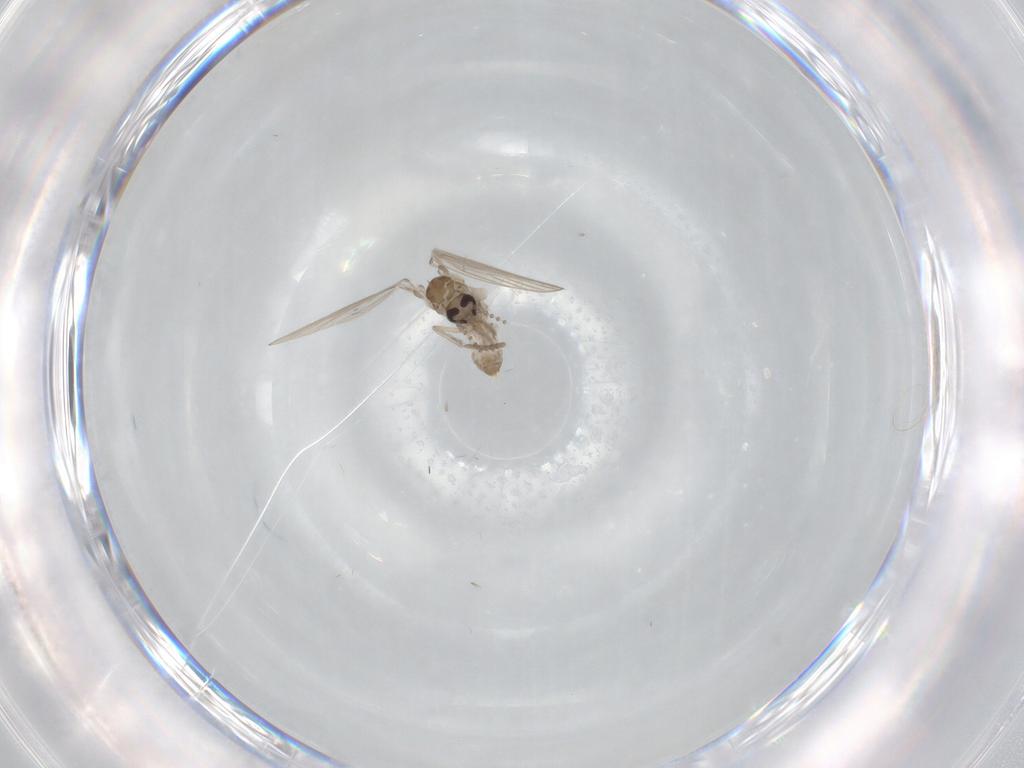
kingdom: Animalia
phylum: Arthropoda
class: Insecta
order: Diptera
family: Psychodidae
